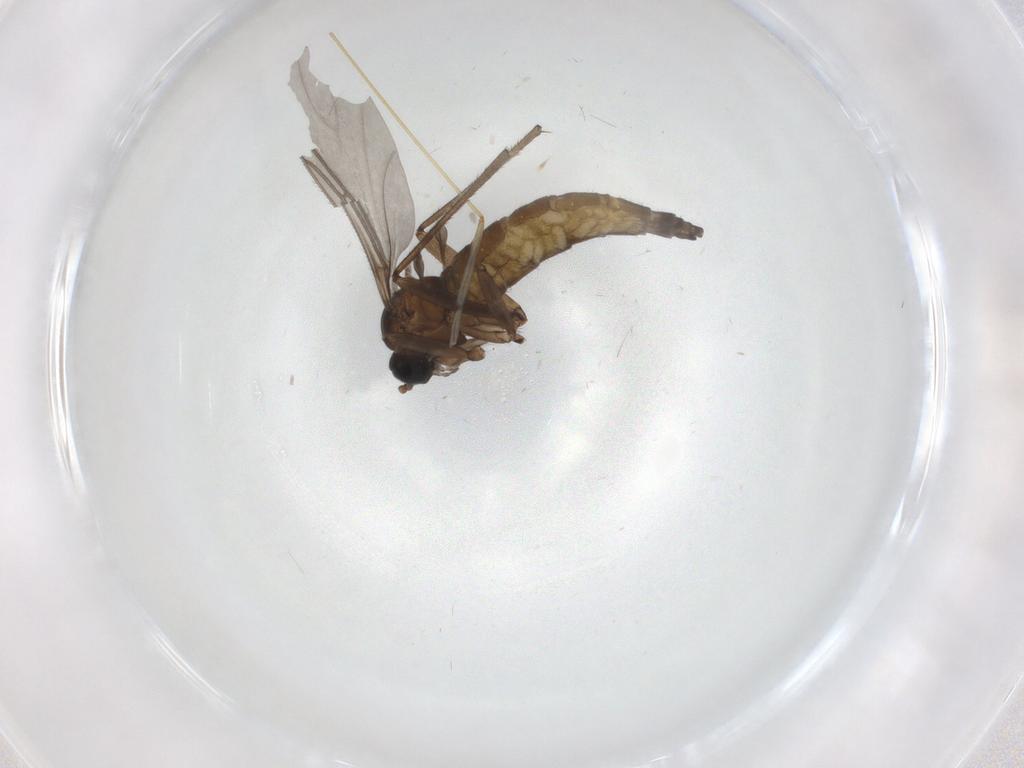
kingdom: Animalia
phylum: Arthropoda
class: Insecta
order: Diptera
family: Sciaridae
